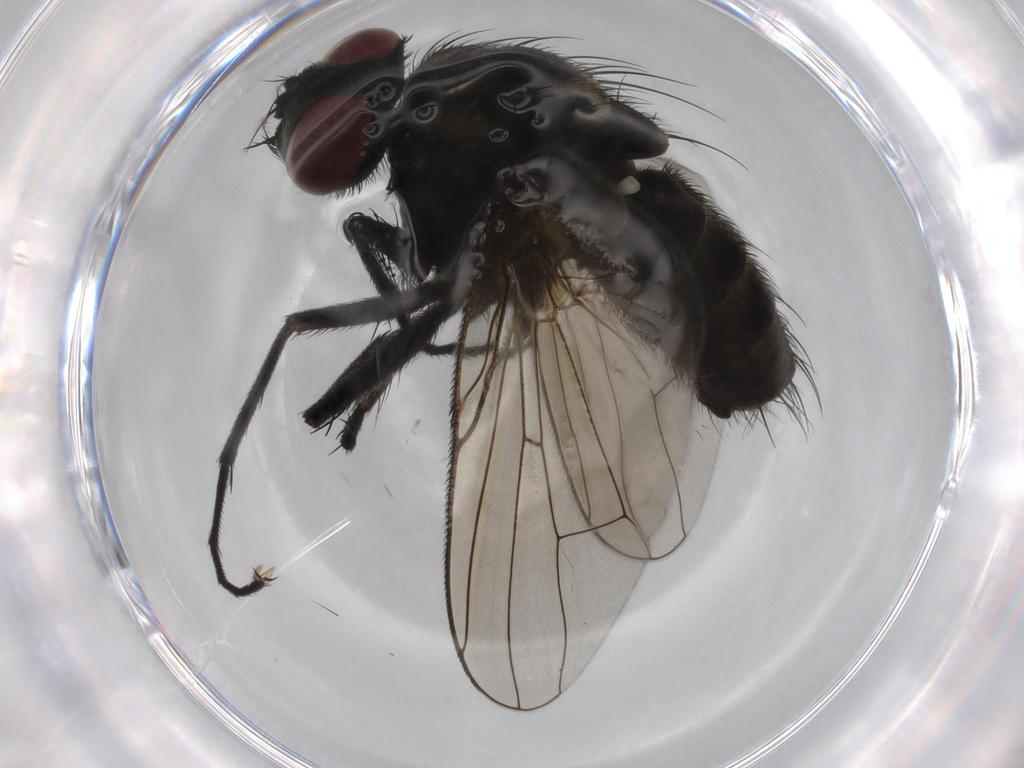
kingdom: Animalia
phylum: Arthropoda
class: Insecta
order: Diptera
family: Muscidae
